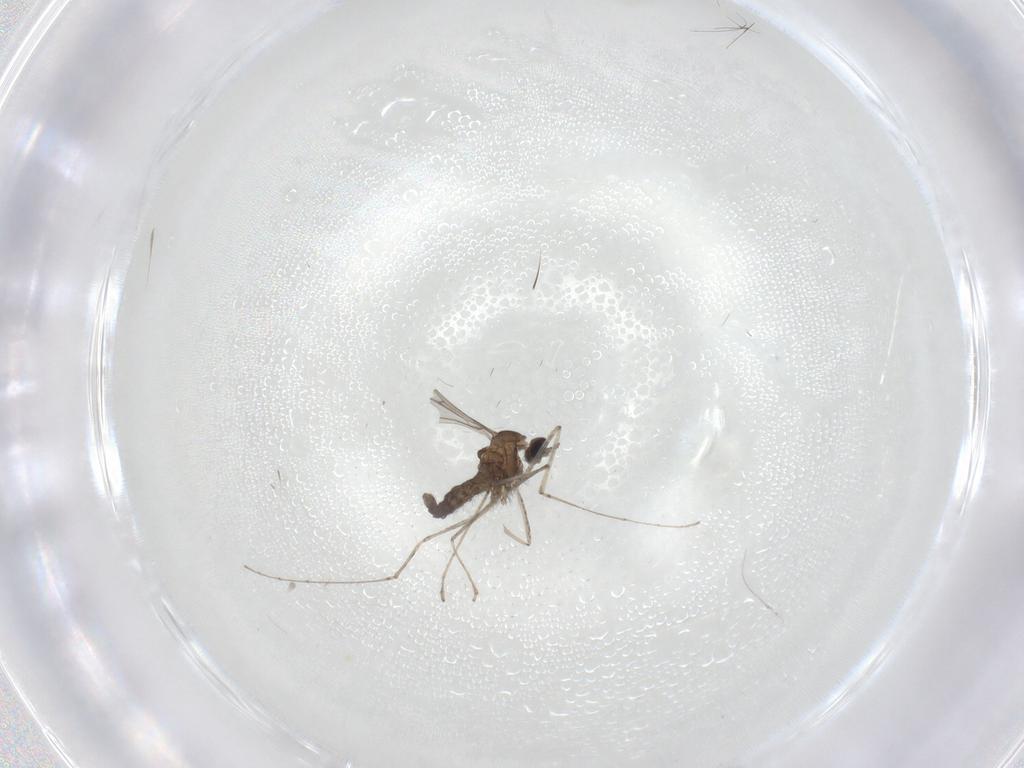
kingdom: Animalia
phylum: Arthropoda
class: Insecta
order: Diptera
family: Cecidomyiidae
